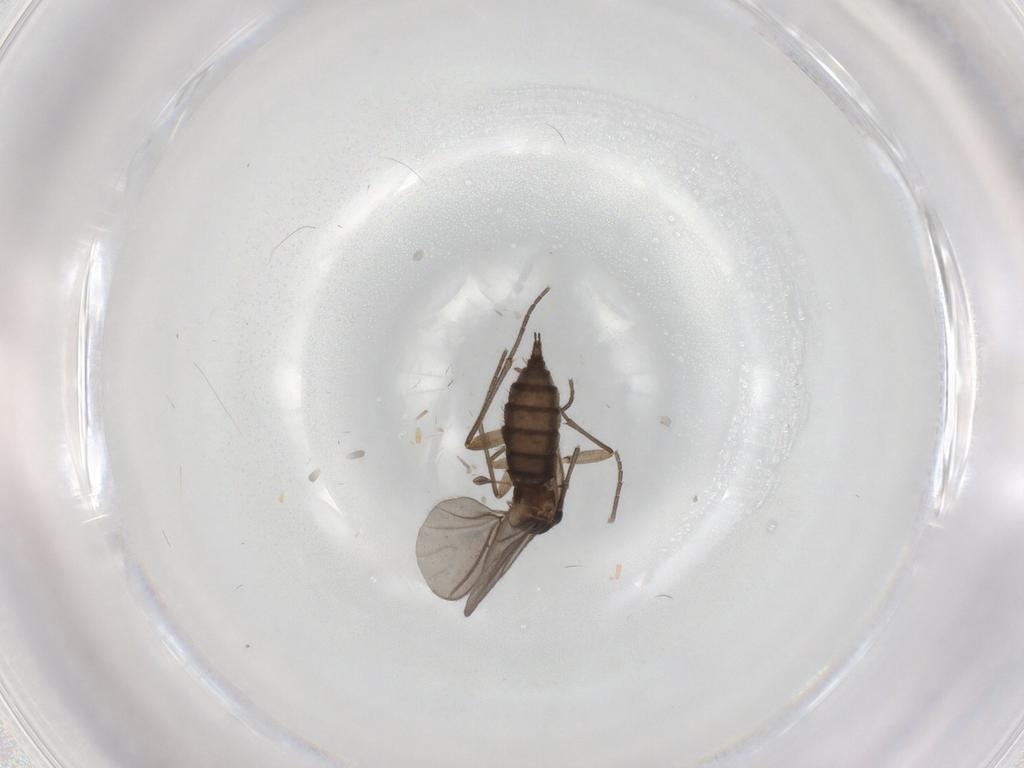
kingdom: Animalia
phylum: Arthropoda
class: Insecta
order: Diptera
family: Sciaridae
